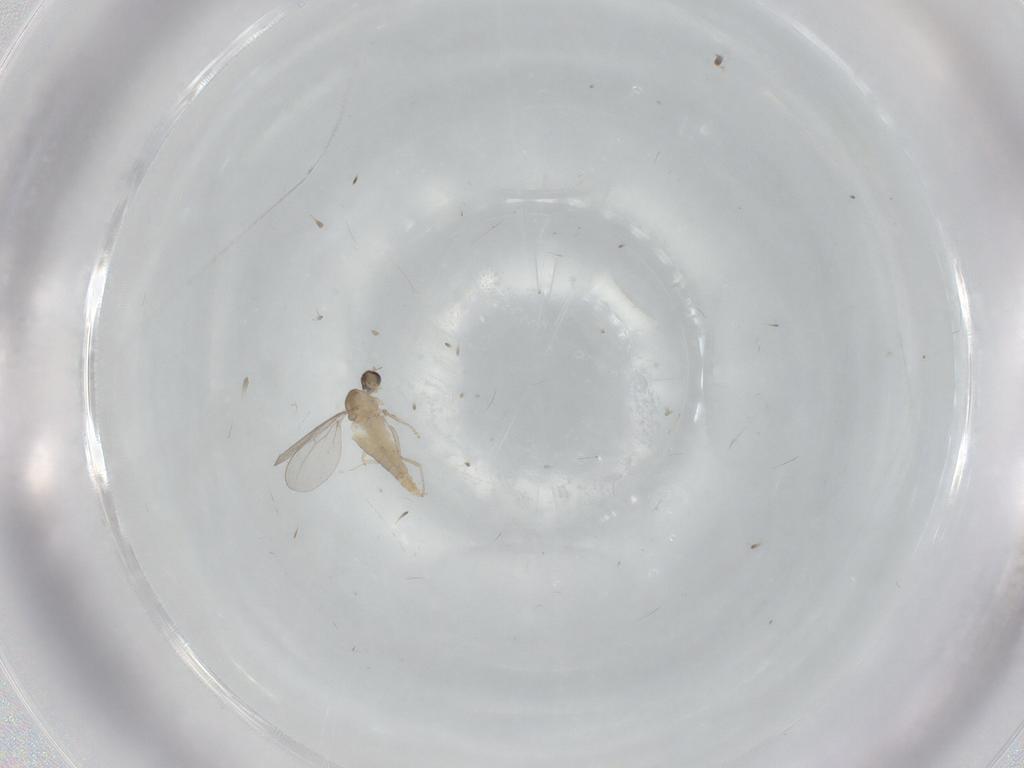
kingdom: Animalia
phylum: Arthropoda
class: Insecta
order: Diptera
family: Cecidomyiidae
